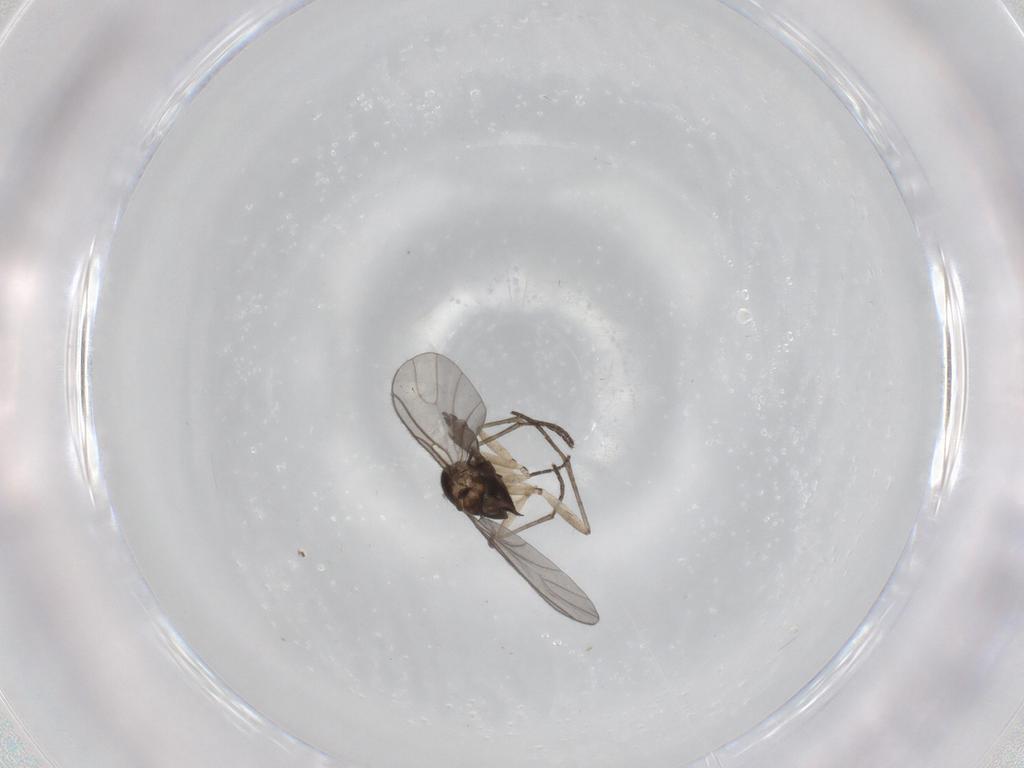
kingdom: Animalia
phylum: Arthropoda
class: Insecta
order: Diptera
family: Sciaridae
